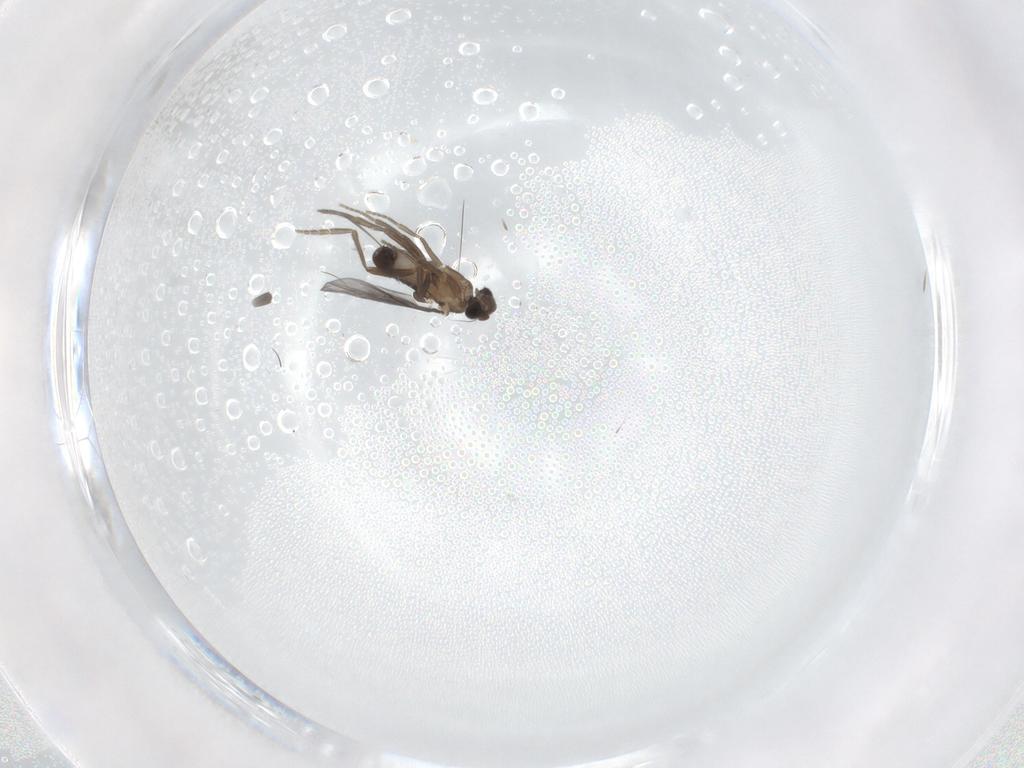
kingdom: Animalia
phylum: Arthropoda
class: Insecta
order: Diptera
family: Phoridae
